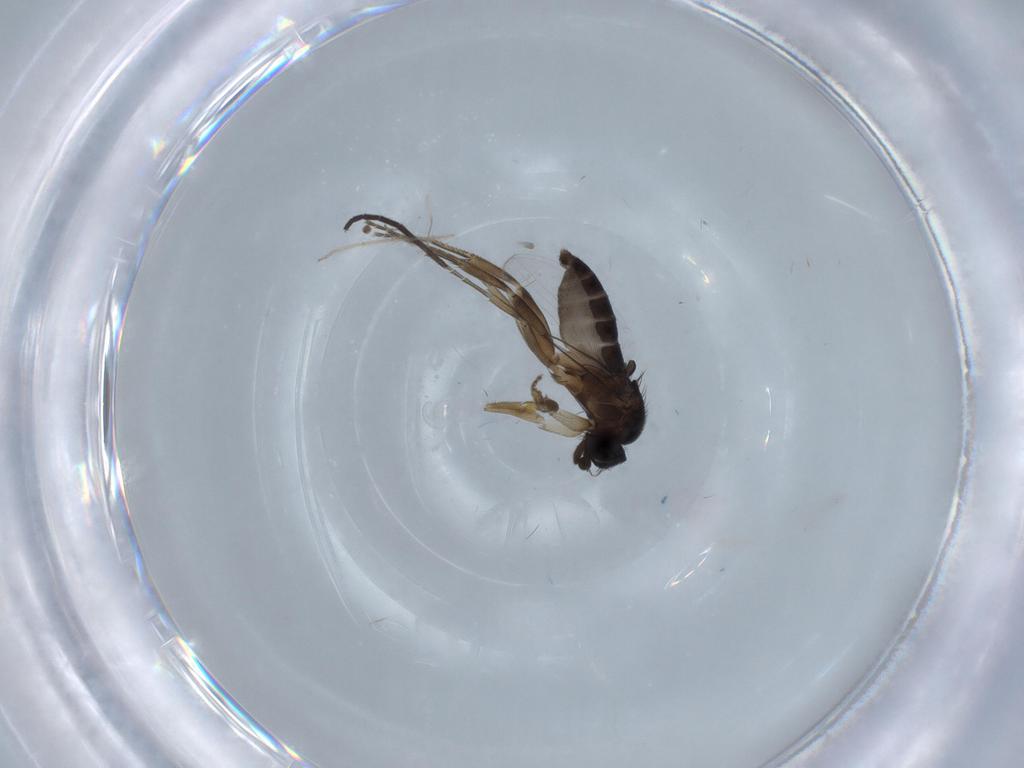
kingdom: Animalia
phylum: Arthropoda
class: Insecta
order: Diptera
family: Phoridae
